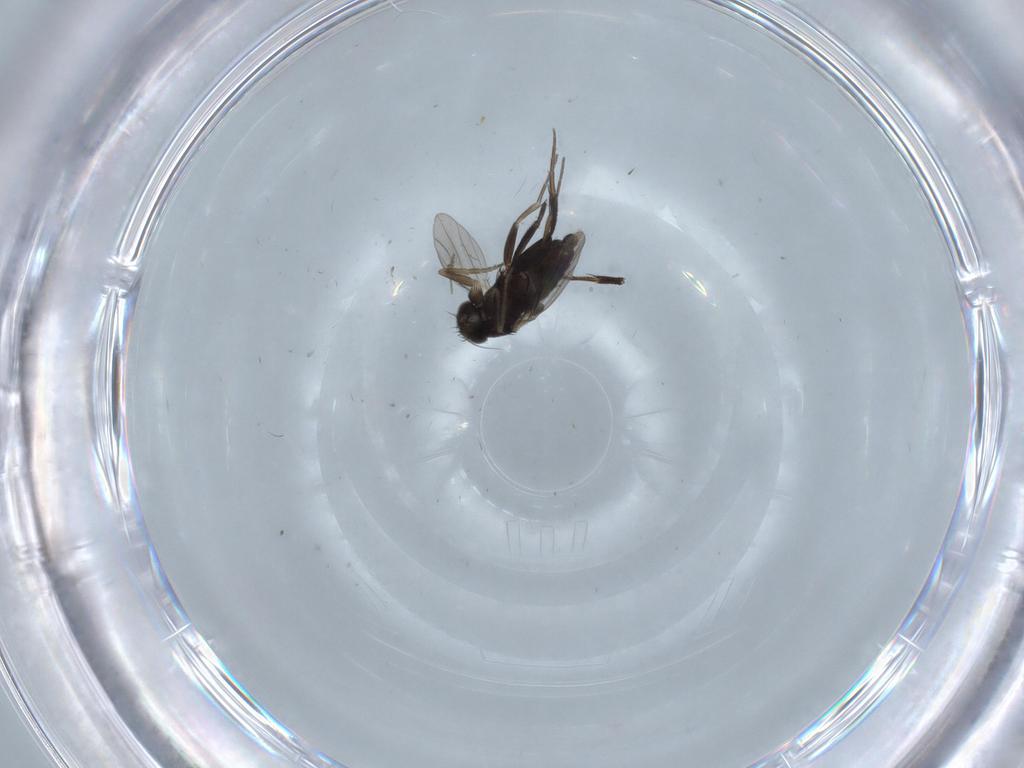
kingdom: Animalia
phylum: Arthropoda
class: Insecta
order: Diptera
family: Phoridae
